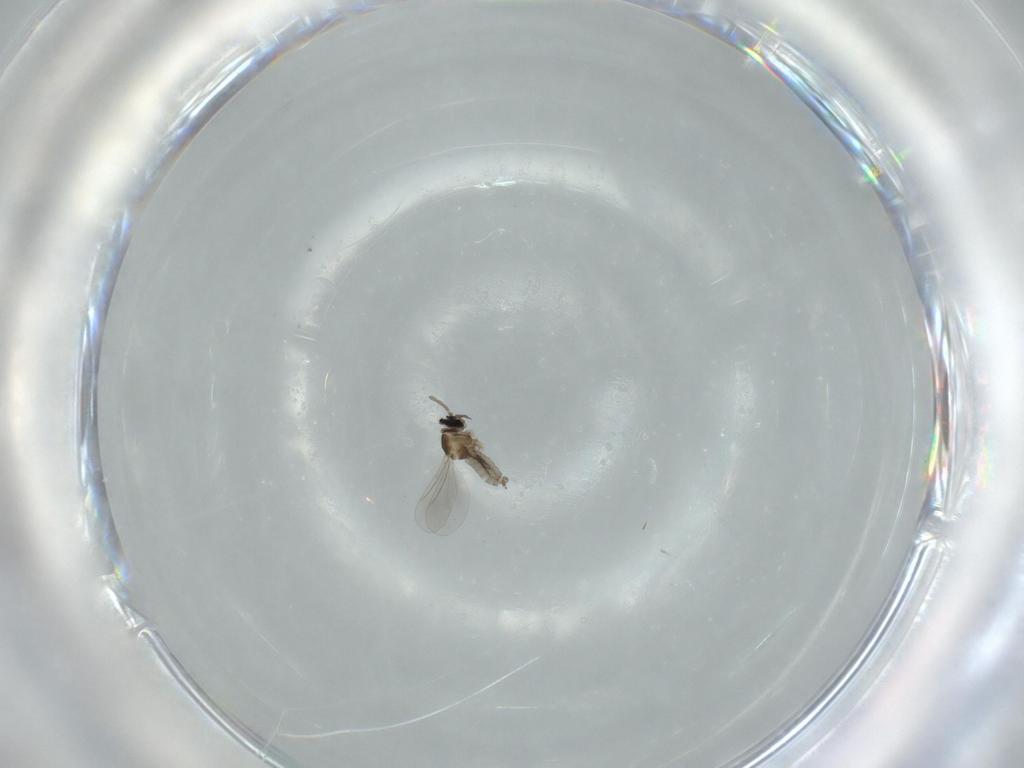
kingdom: Animalia
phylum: Arthropoda
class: Insecta
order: Diptera
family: Cecidomyiidae
